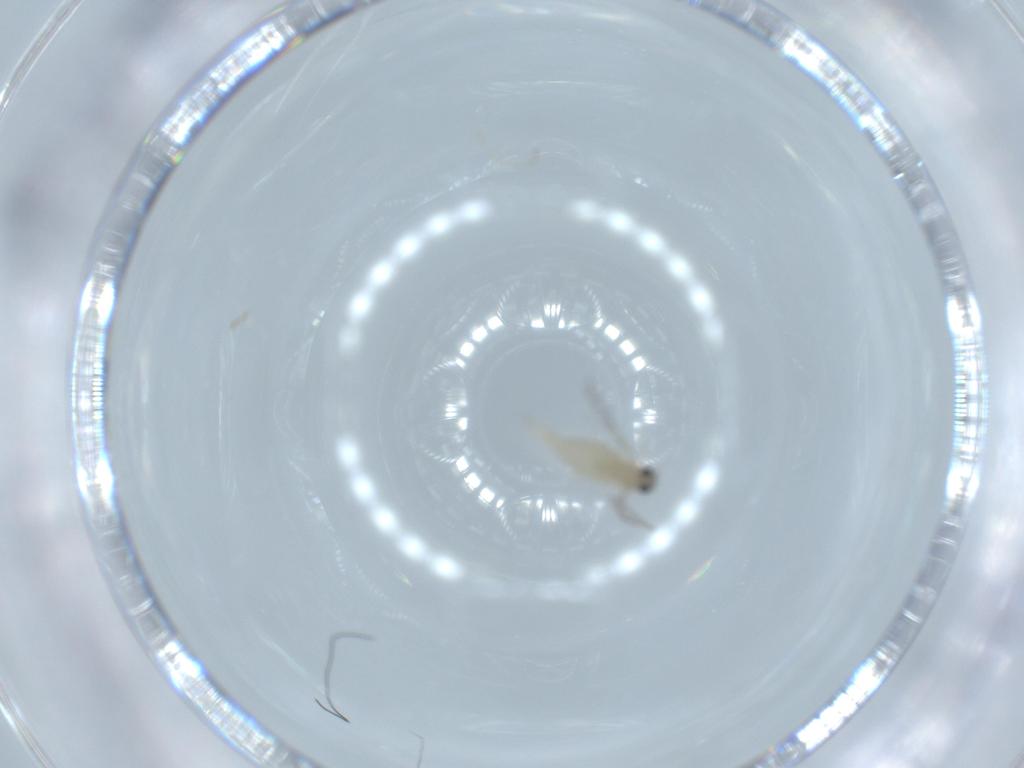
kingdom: Animalia
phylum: Arthropoda
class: Insecta
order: Diptera
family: Cecidomyiidae
